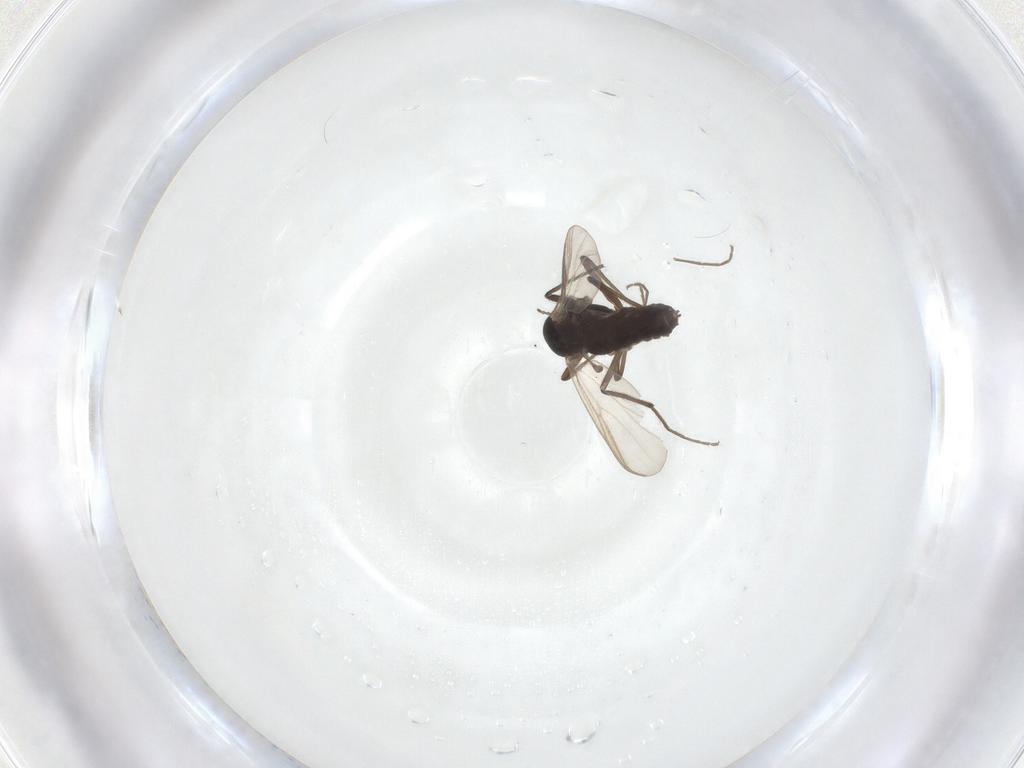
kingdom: Animalia
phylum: Arthropoda
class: Insecta
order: Diptera
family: Chironomidae
